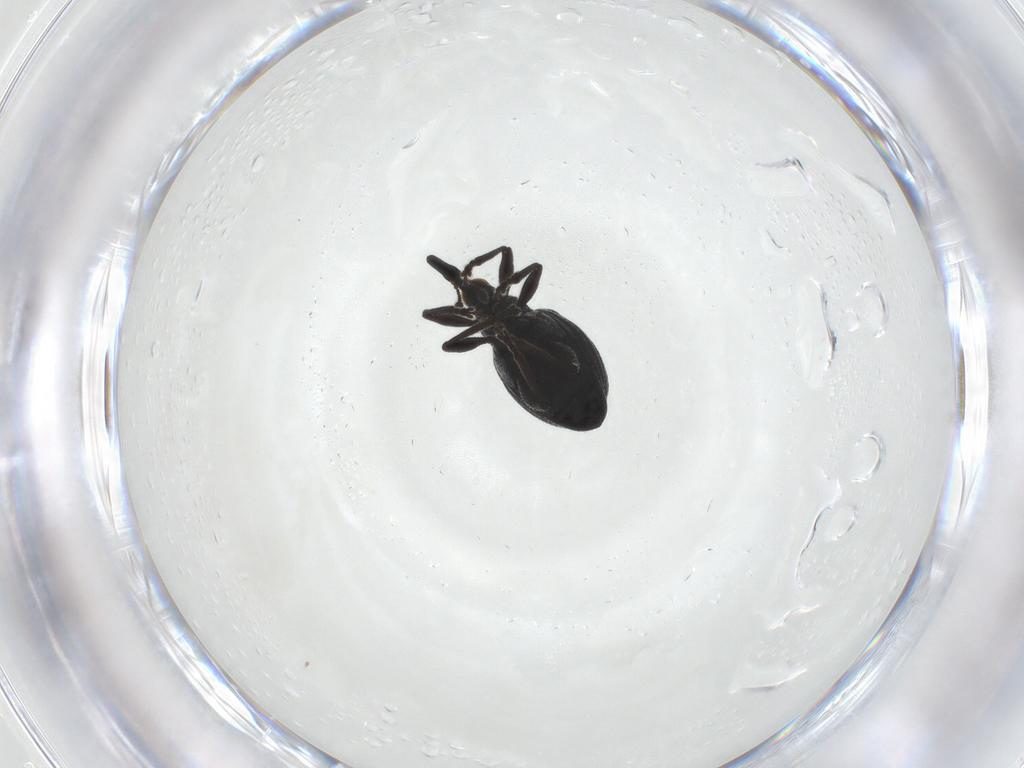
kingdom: Animalia
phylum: Arthropoda
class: Insecta
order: Coleoptera
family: Brentidae
